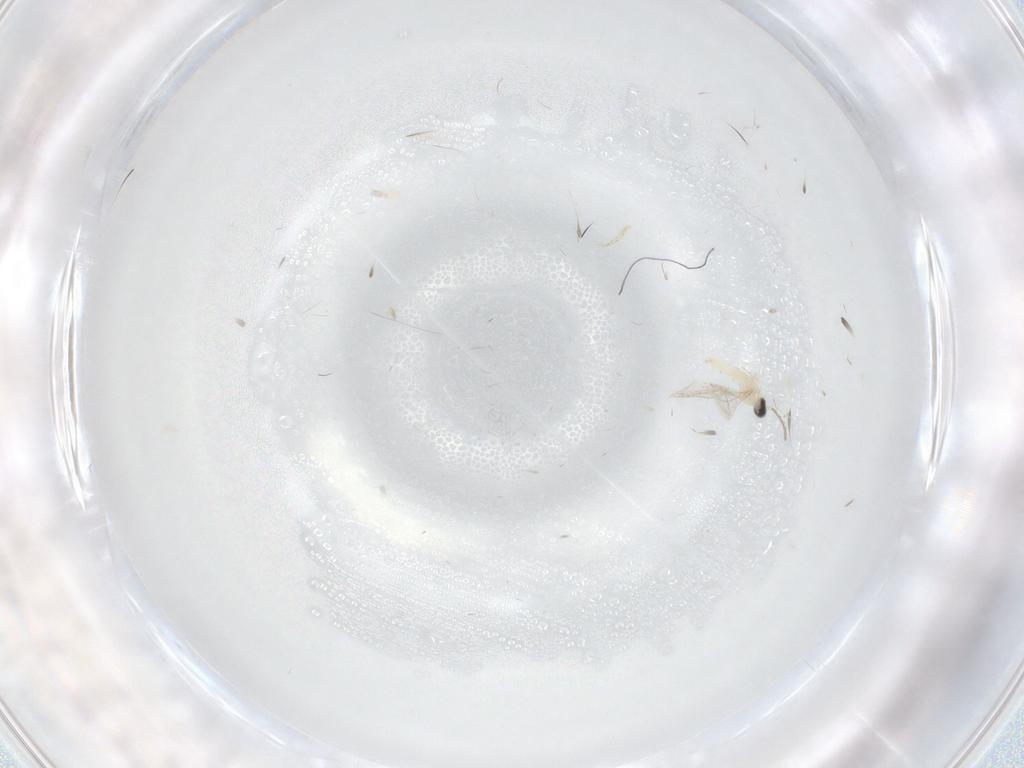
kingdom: Animalia
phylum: Arthropoda
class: Insecta
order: Diptera
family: Cecidomyiidae
